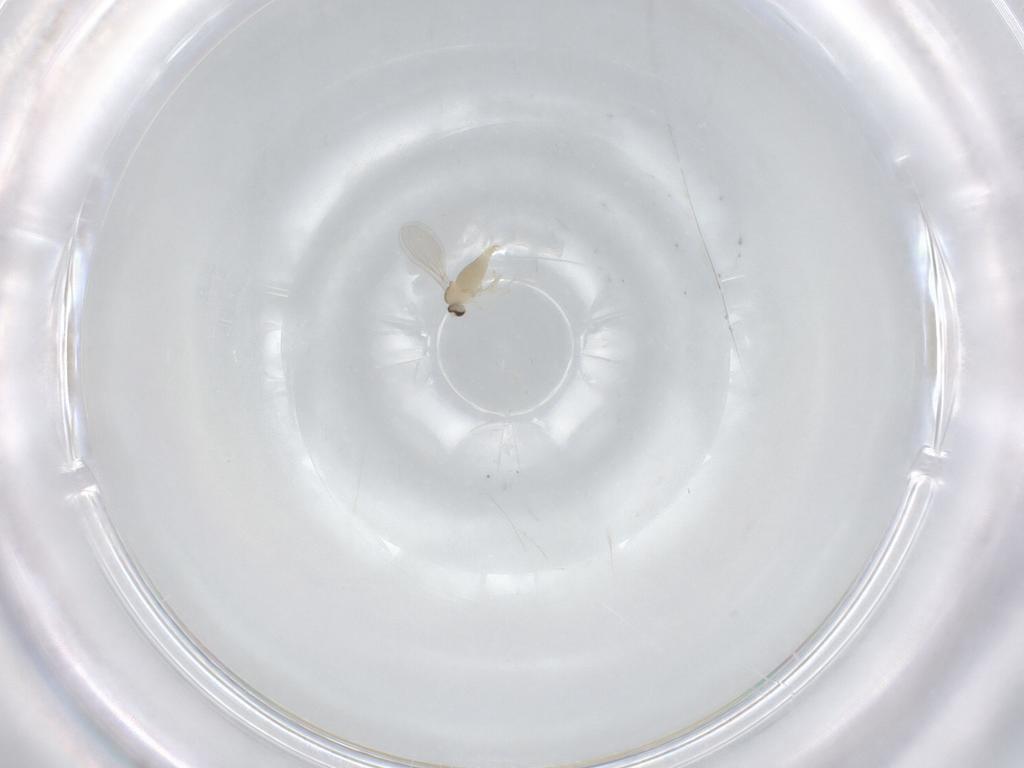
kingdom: Animalia
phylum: Arthropoda
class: Insecta
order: Diptera
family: Cecidomyiidae
